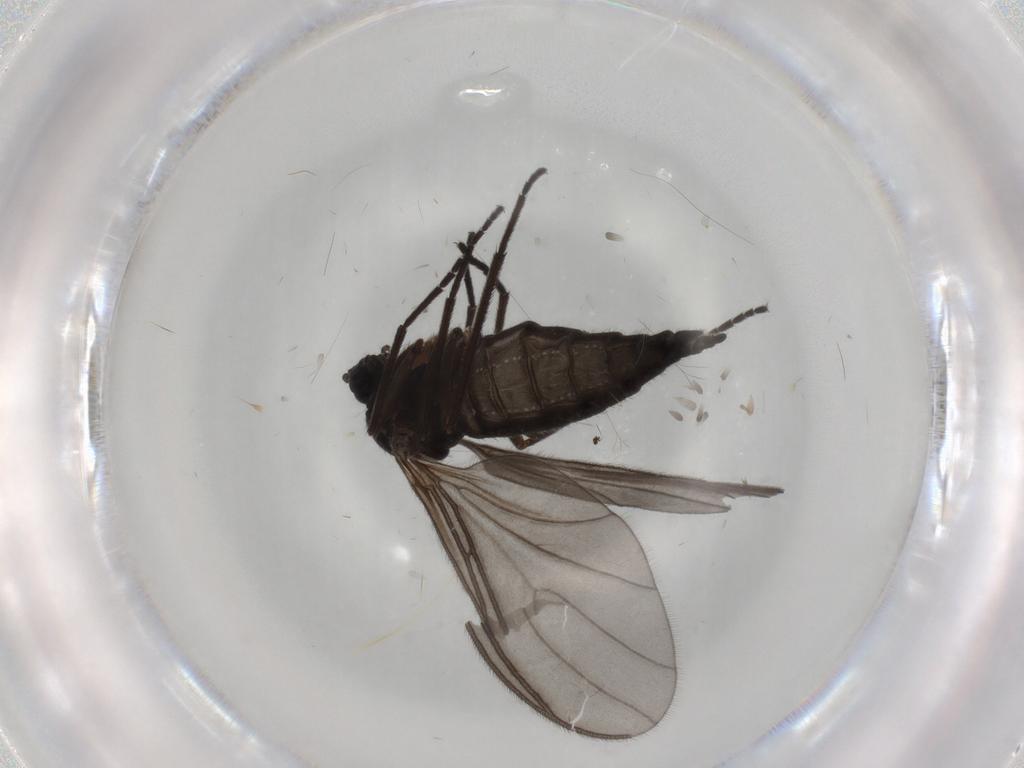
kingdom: Animalia
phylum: Arthropoda
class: Insecta
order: Diptera
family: Sciaridae
